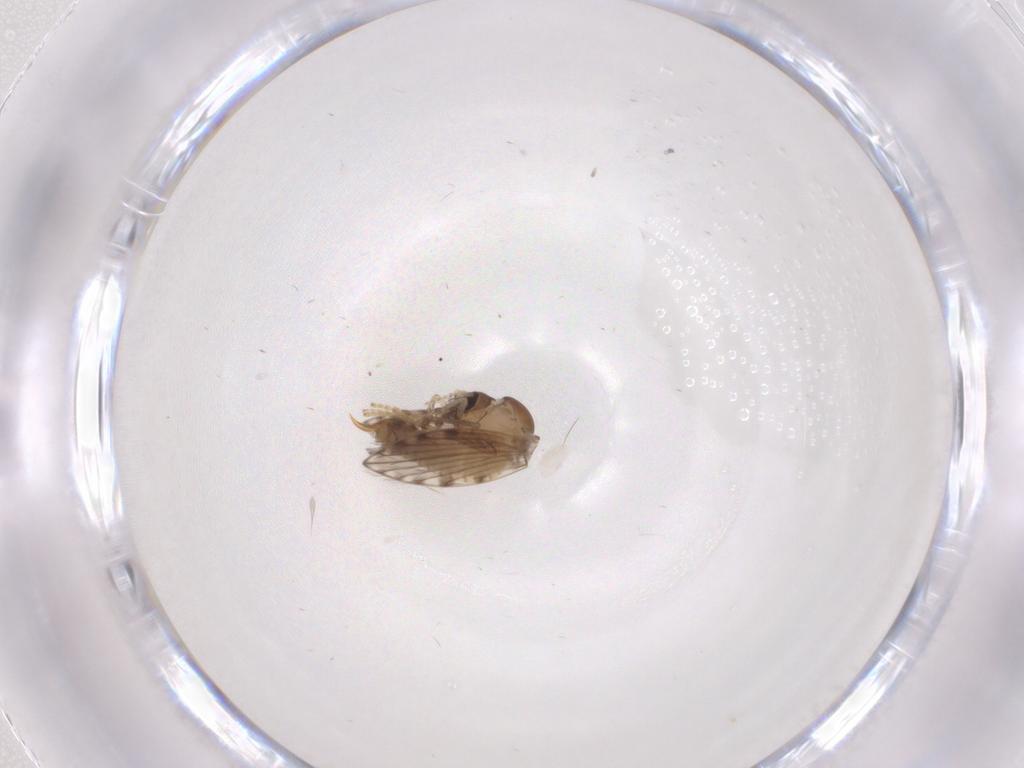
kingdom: Animalia
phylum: Arthropoda
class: Insecta
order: Diptera
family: Psychodidae
